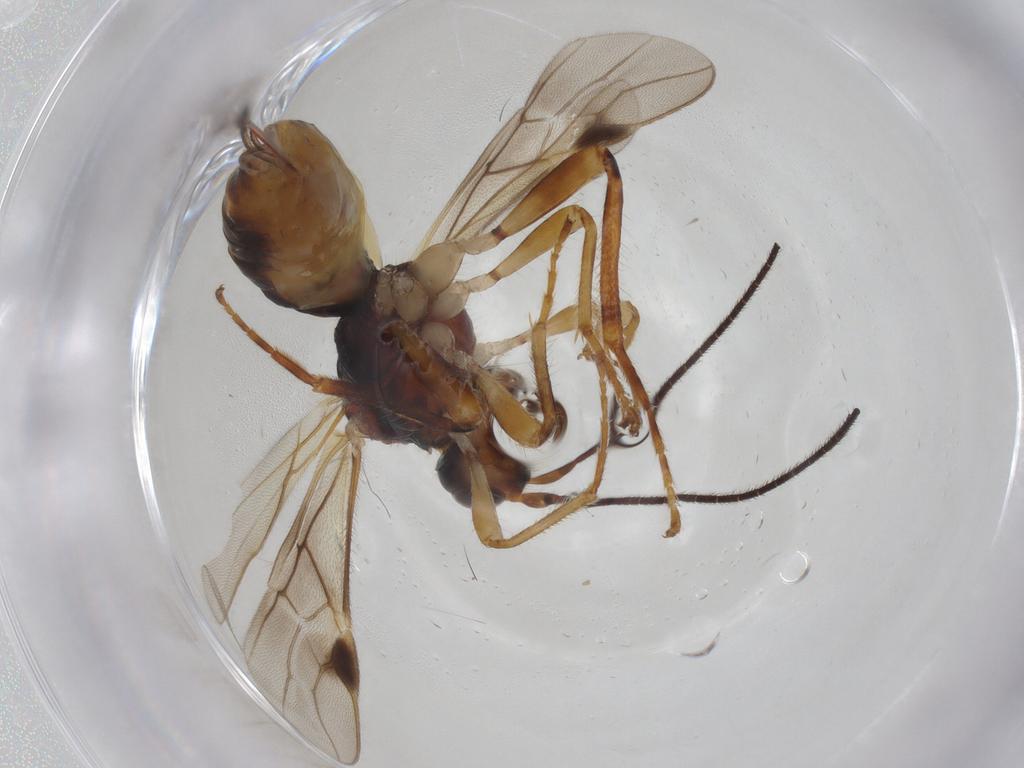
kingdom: Animalia
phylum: Arthropoda
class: Insecta
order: Hymenoptera
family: Braconidae
